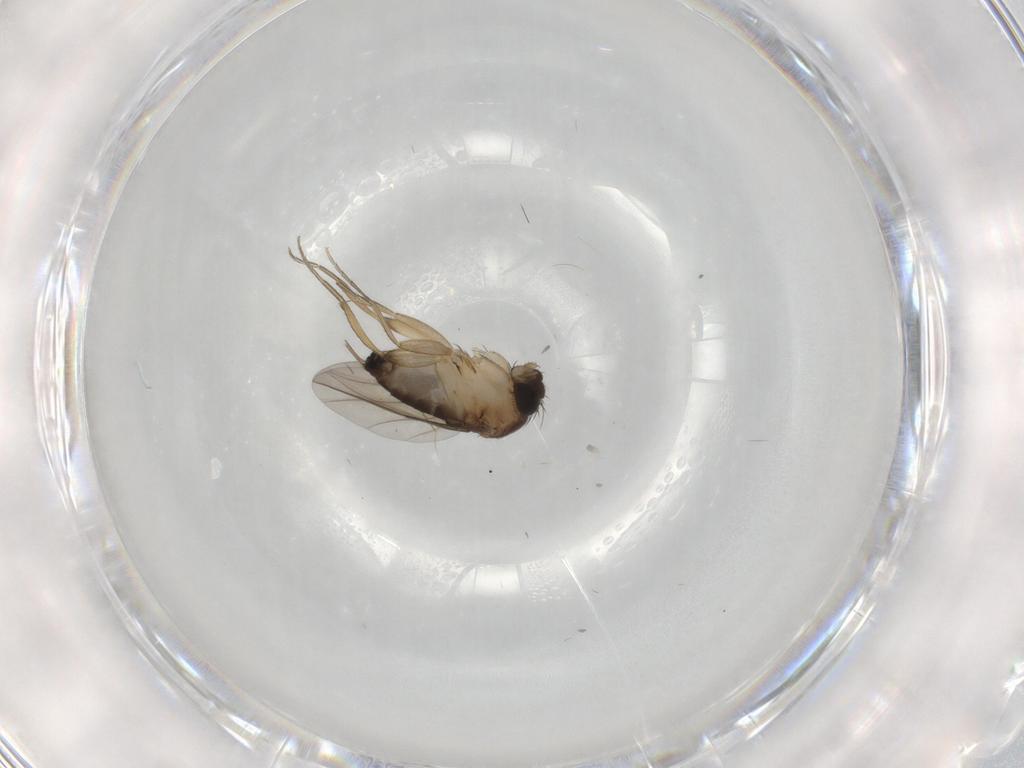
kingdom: Animalia
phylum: Arthropoda
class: Insecta
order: Diptera
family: Phoridae
